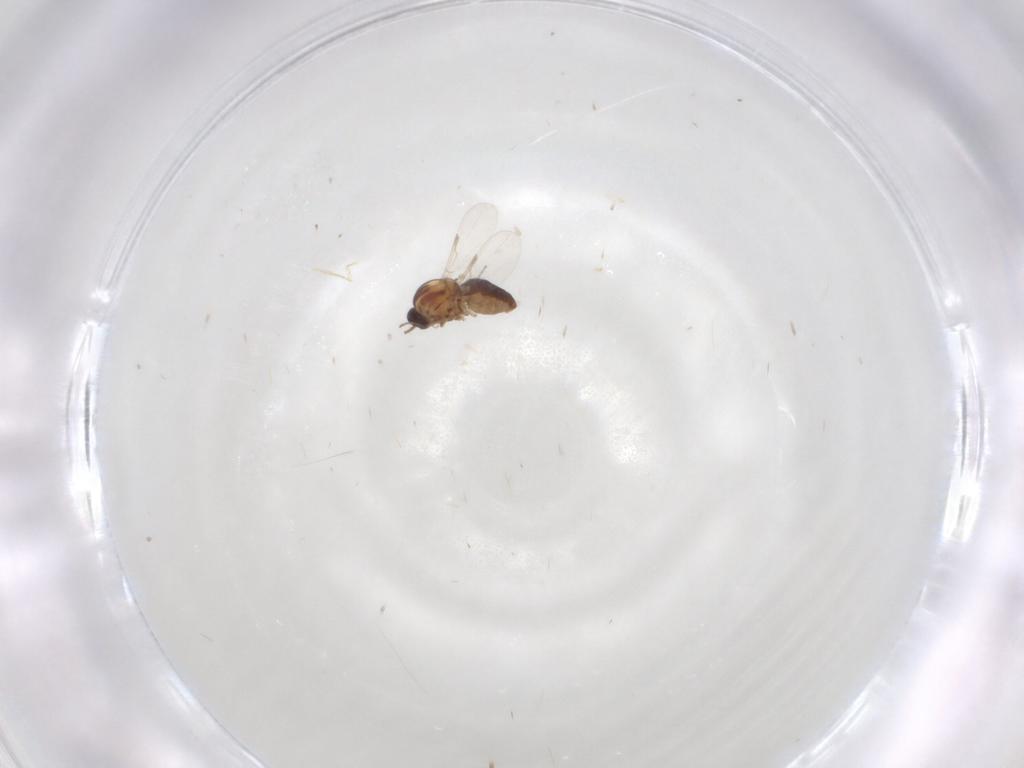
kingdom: Animalia
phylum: Arthropoda
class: Insecta
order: Diptera
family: Ceratopogonidae
